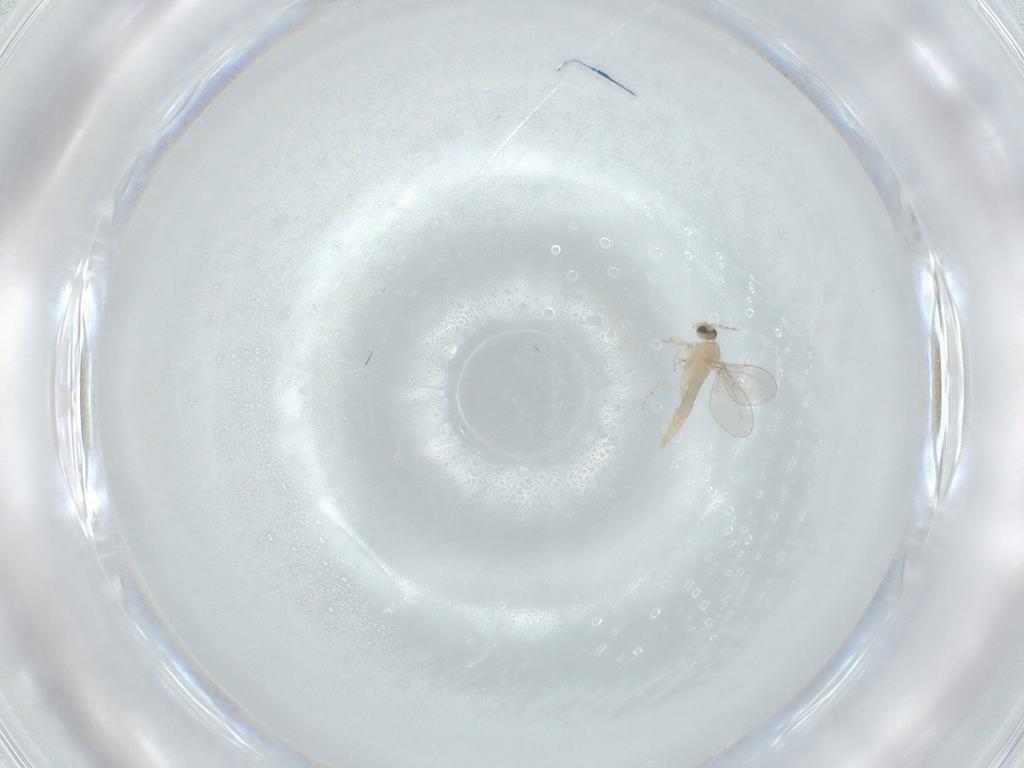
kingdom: Animalia
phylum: Arthropoda
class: Insecta
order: Diptera
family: Cecidomyiidae
